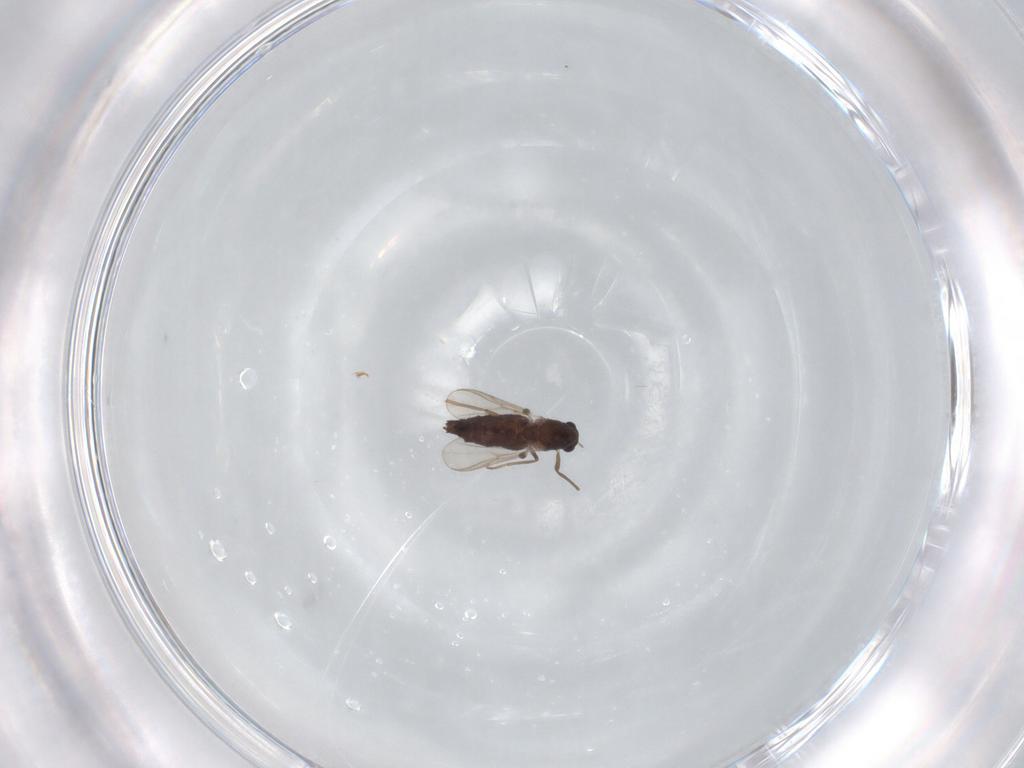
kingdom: Animalia
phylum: Arthropoda
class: Insecta
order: Diptera
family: Chironomidae
